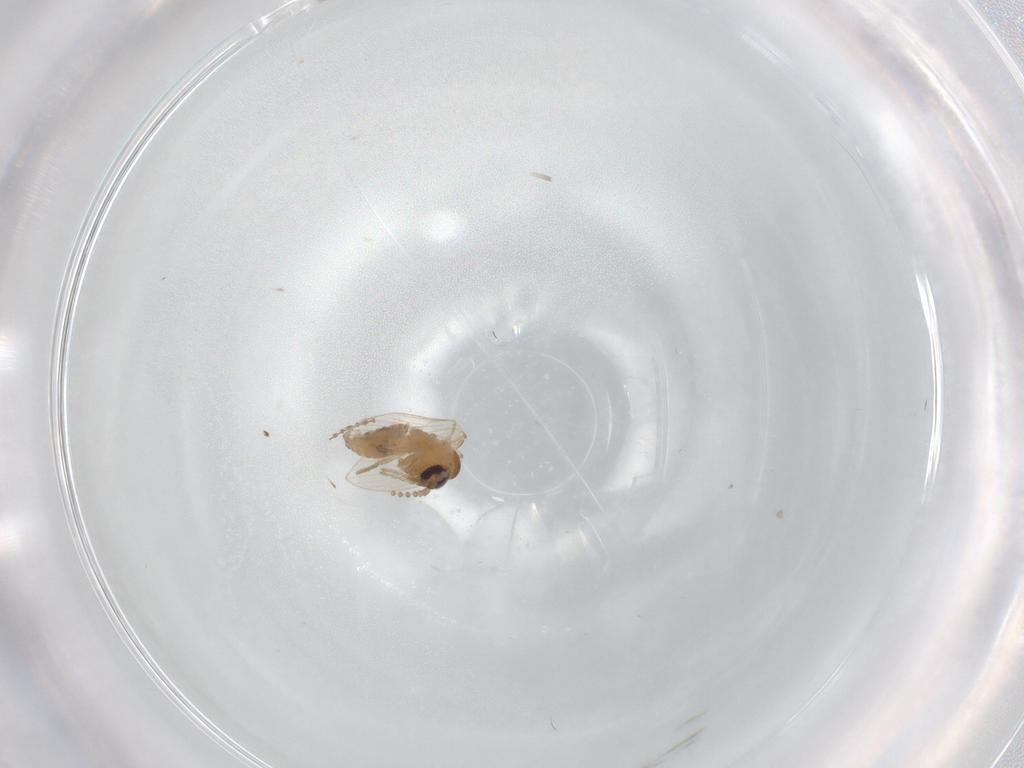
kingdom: Animalia
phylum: Arthropoda
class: Insecta
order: Diptera
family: Psychodidae
